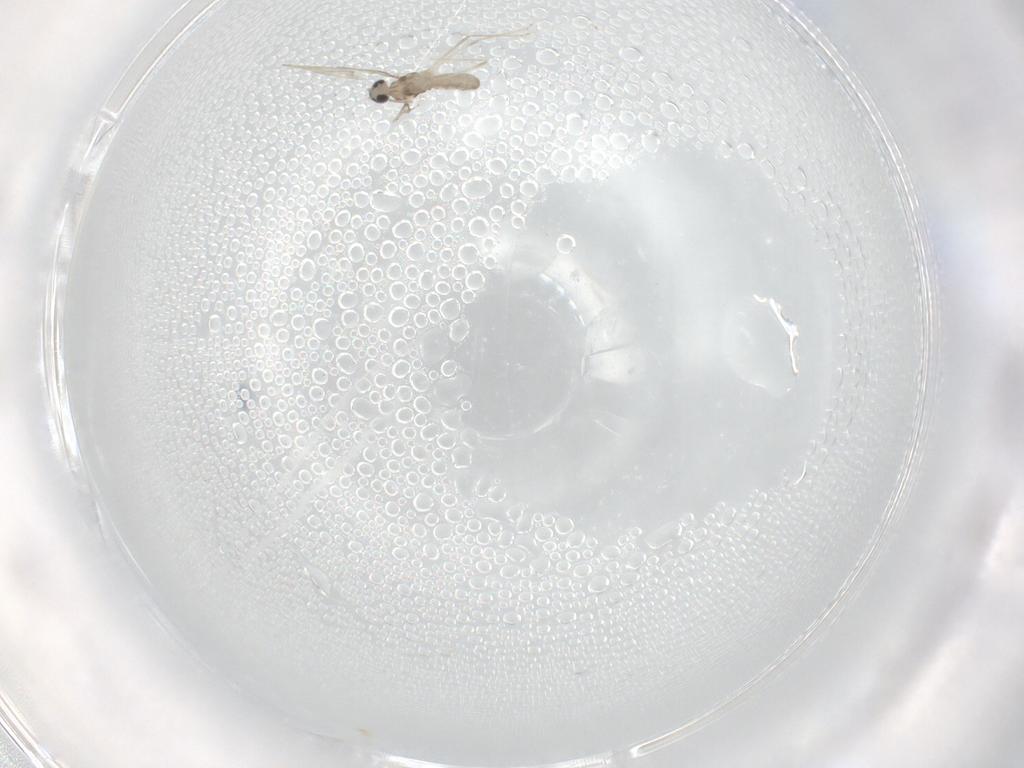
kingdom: Animalia
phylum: Arthropoda
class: Insecta
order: Diptera
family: Cecidomyiidae
